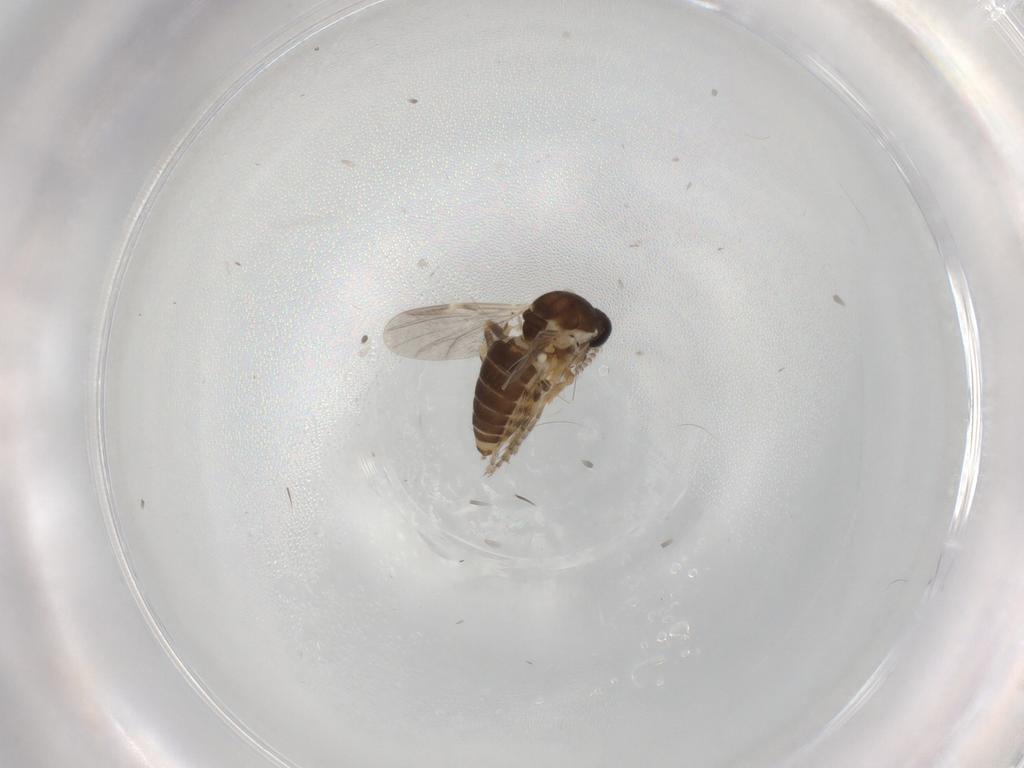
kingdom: Animalia
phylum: Arthropoda
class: Insecta
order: Diptera
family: Ceratopogonidae
